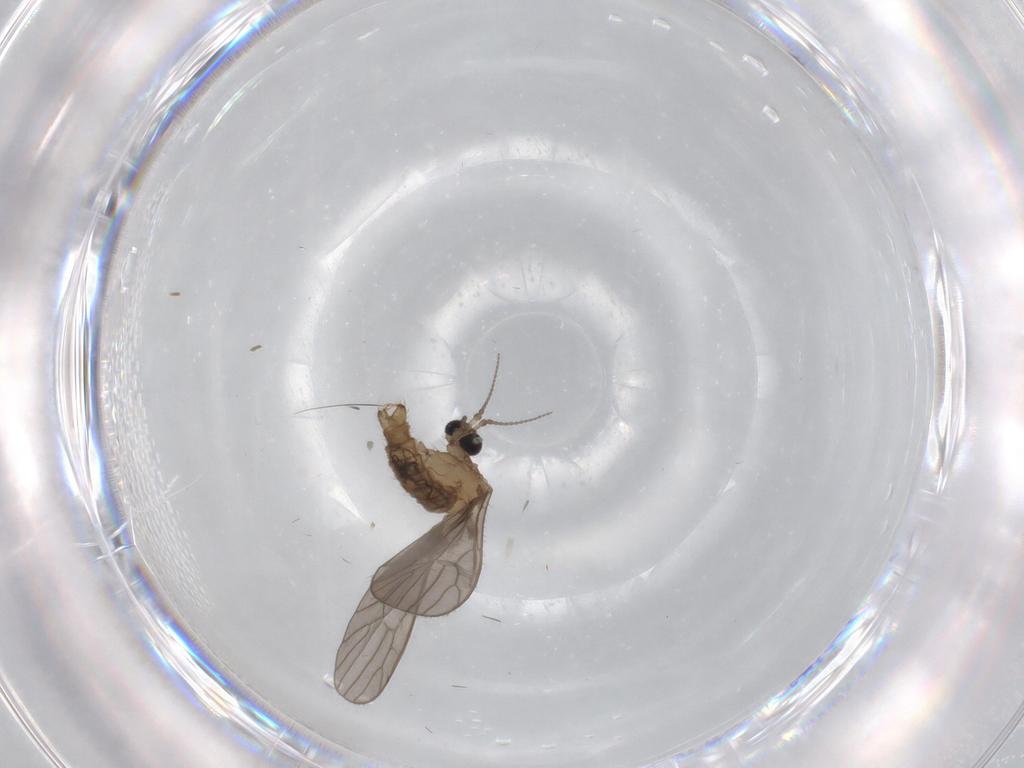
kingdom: Animalia
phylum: Arthropoda
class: Insecta
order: Diptera
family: Limoniidae
